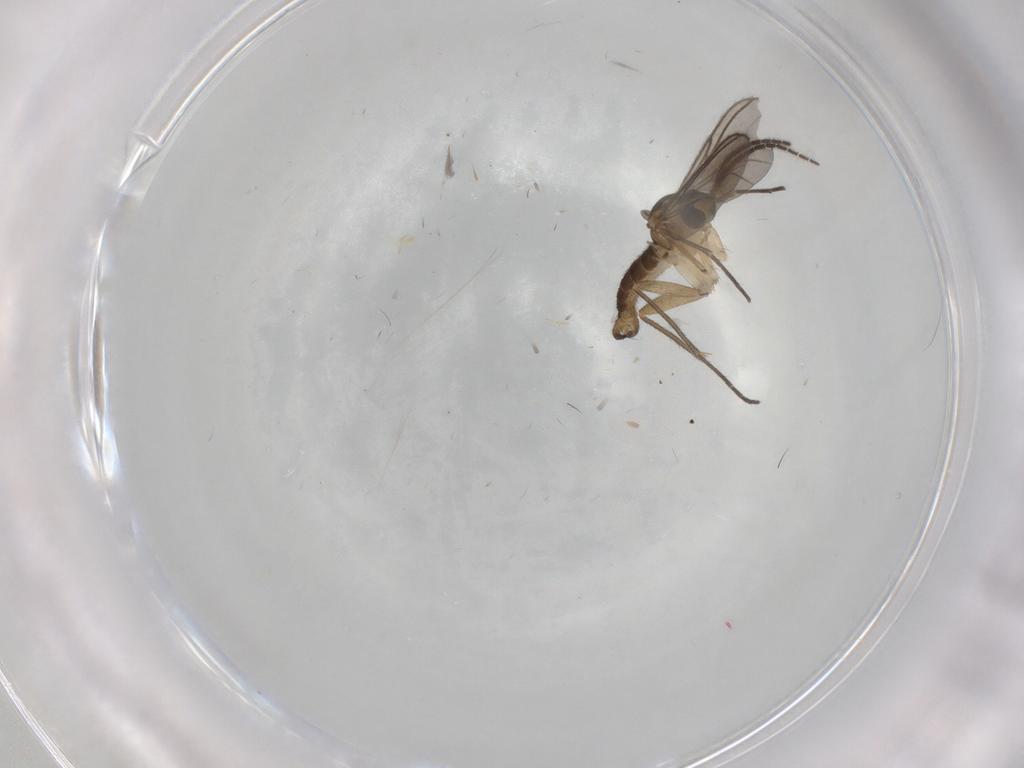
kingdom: Animalia
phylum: Arthropoda
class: Insecta
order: Diptera
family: Sciaridae
